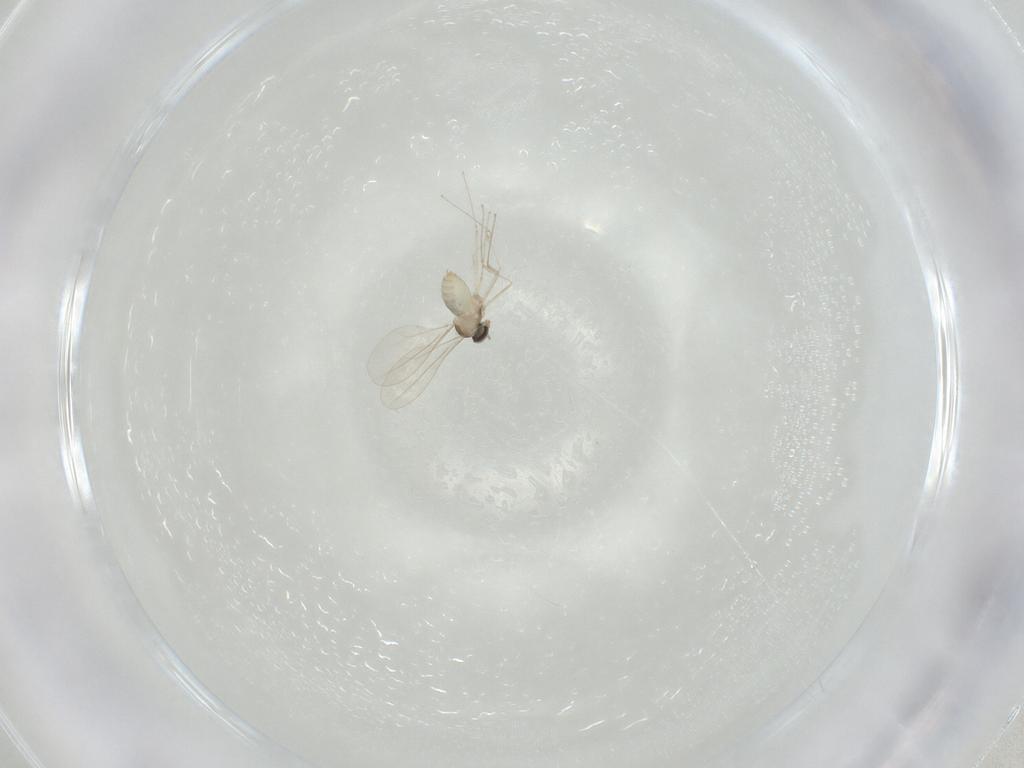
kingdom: Animalia
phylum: Arthropoda
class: Insecta
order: Diptera
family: Cecidomyiidae
